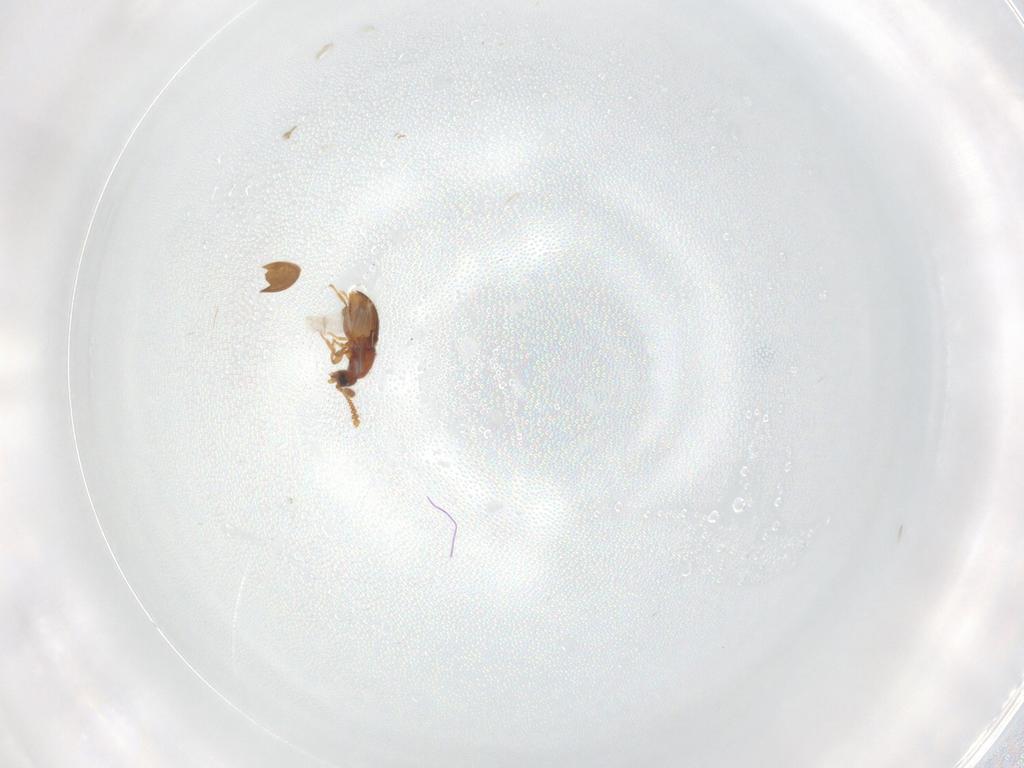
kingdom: Animalia
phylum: Arthropoda
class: Insecta
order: Coleoptera
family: Staphylinidae
